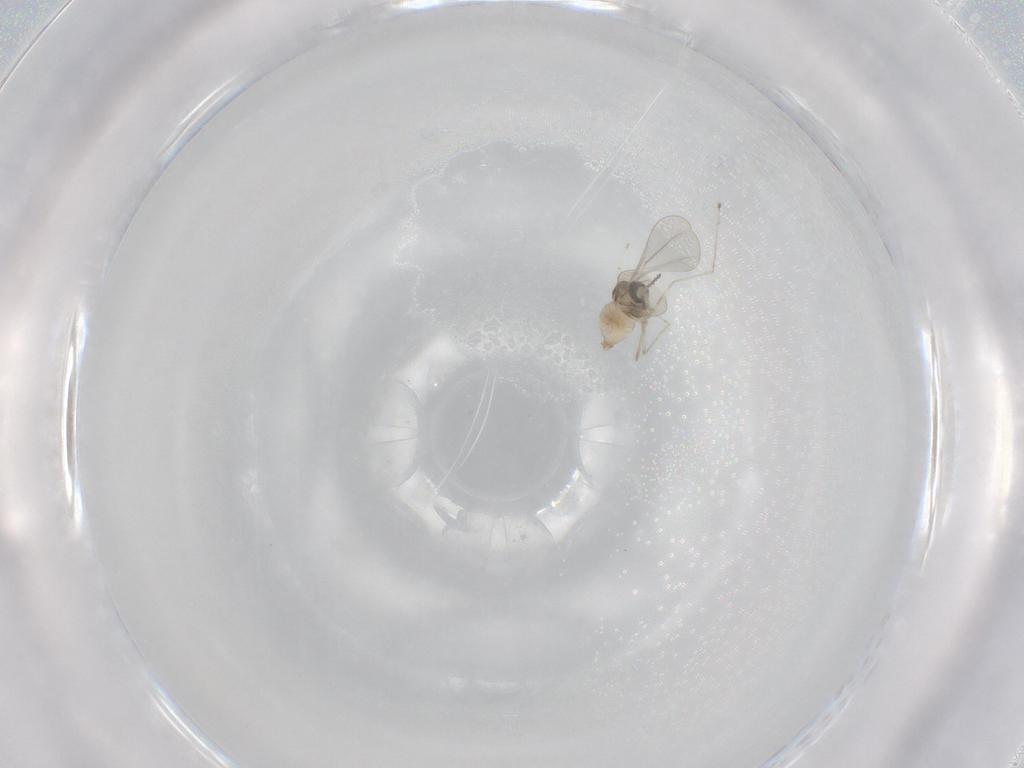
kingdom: Animalia
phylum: Arthropoda
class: Insecta
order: Diptera
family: Cecidomyiidae
